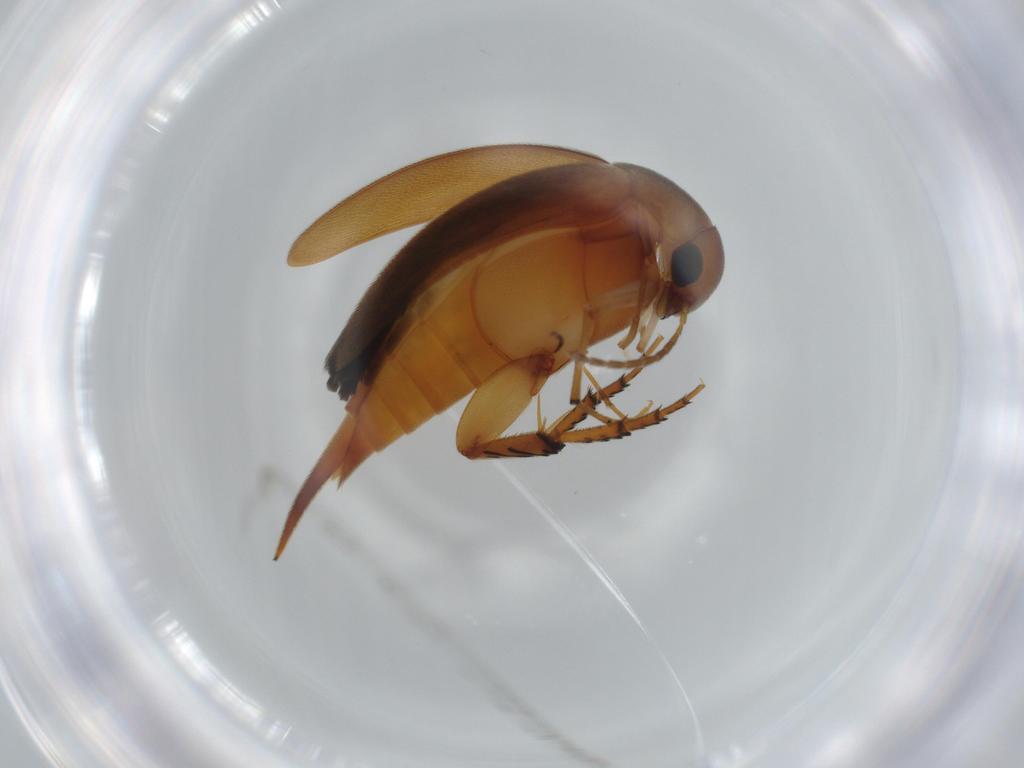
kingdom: Animalia
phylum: Arthropoda
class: Insecta
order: Coleoptera
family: Mordellidae
